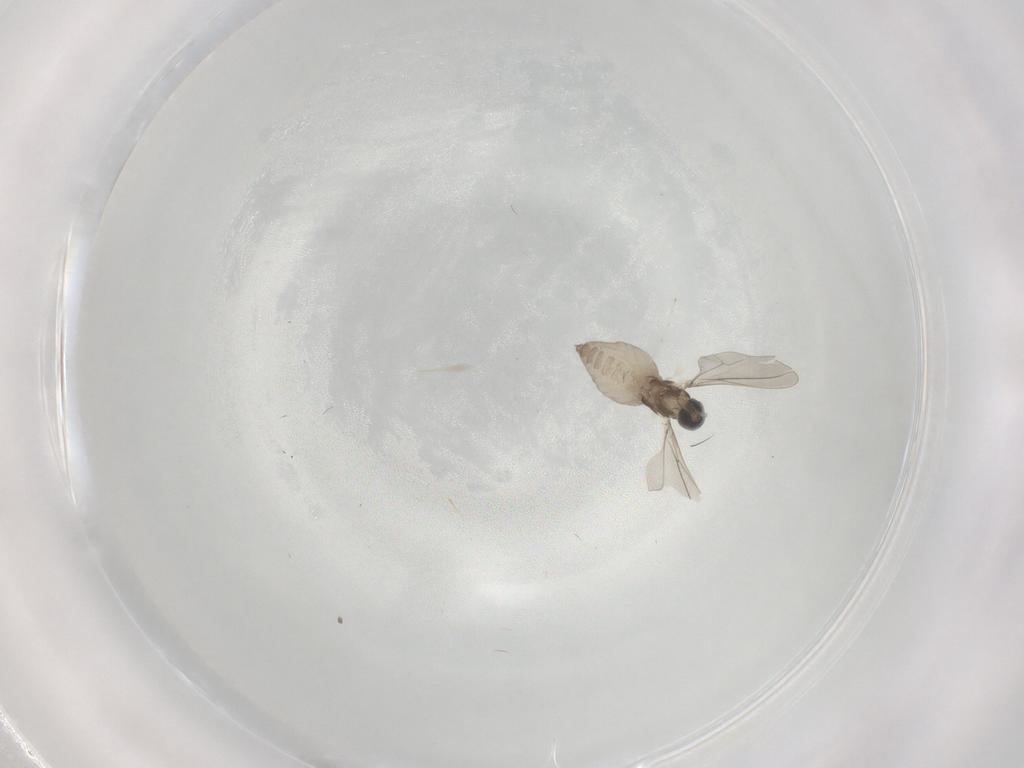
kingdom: Animalia
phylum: Arthropoda
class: Insecta
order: Diptera
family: Cecidomyiidae
